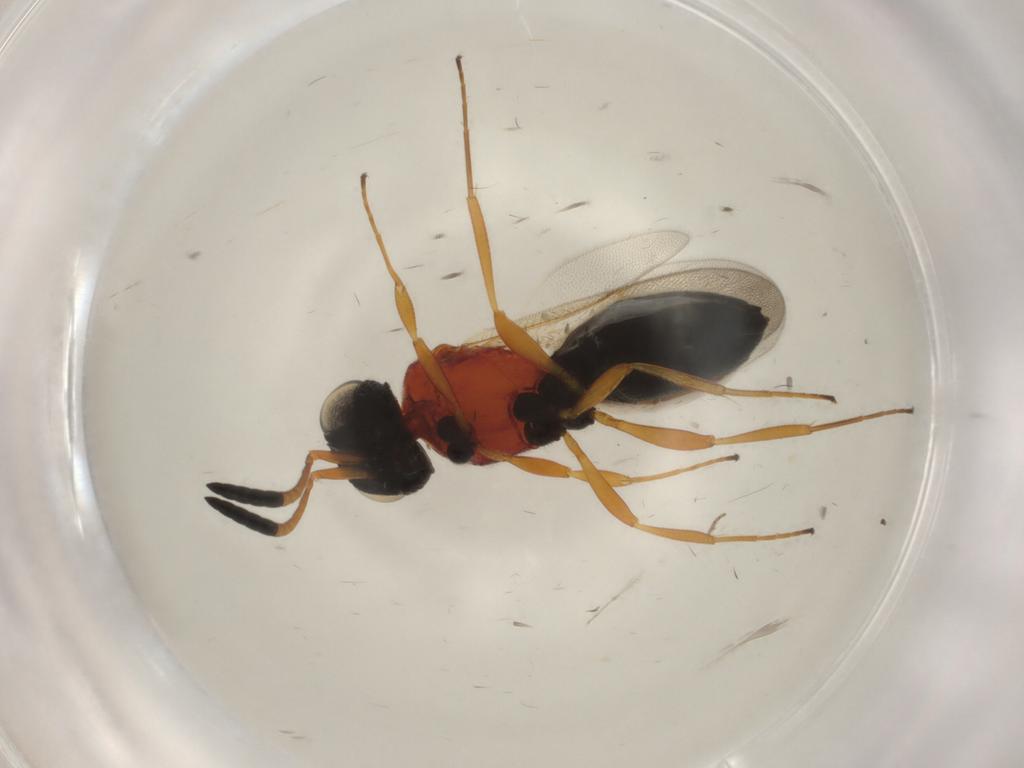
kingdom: Animalia
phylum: Arthropoda
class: Insecta
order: Hymenoptera
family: Scelionidae
